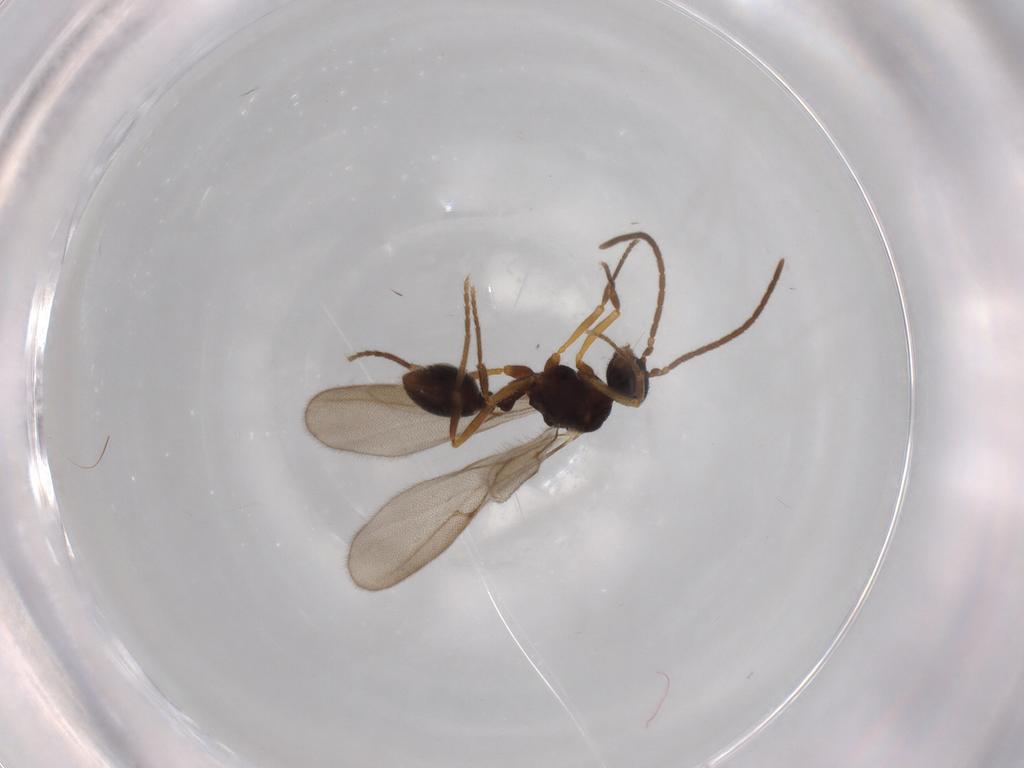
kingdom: Animalia
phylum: Arthropoda
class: Insecta
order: Hymenoptera
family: Formicidae
